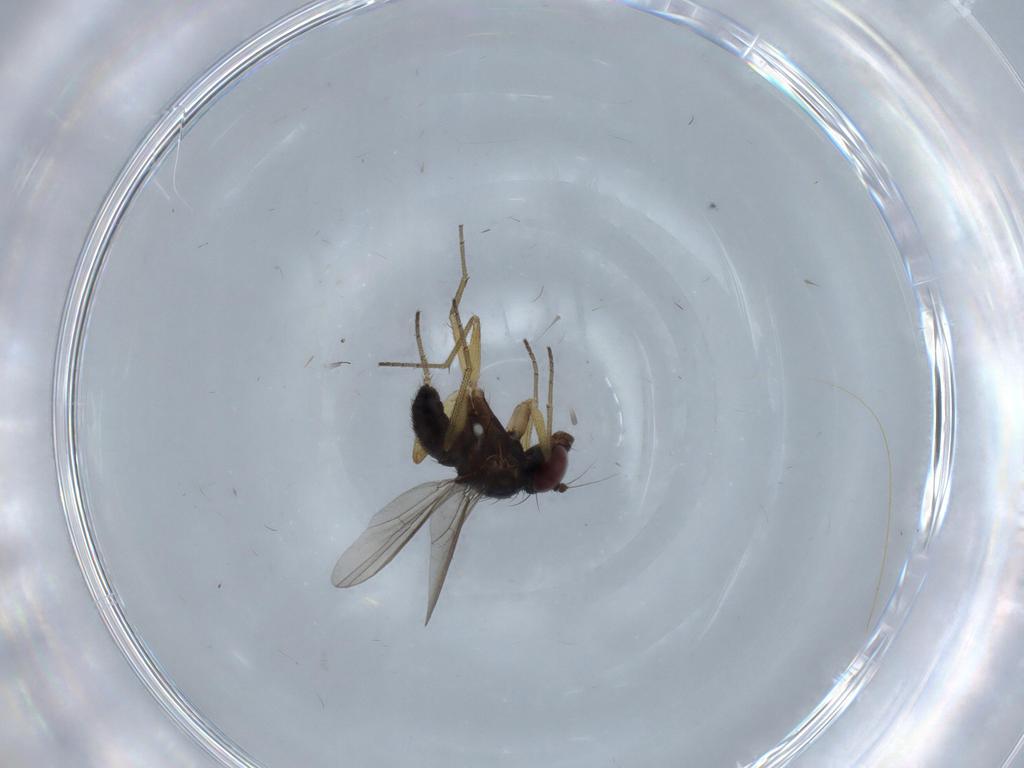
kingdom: Animalia
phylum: Arthropoda
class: Insecta
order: Diptera
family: Dolichopodidae
